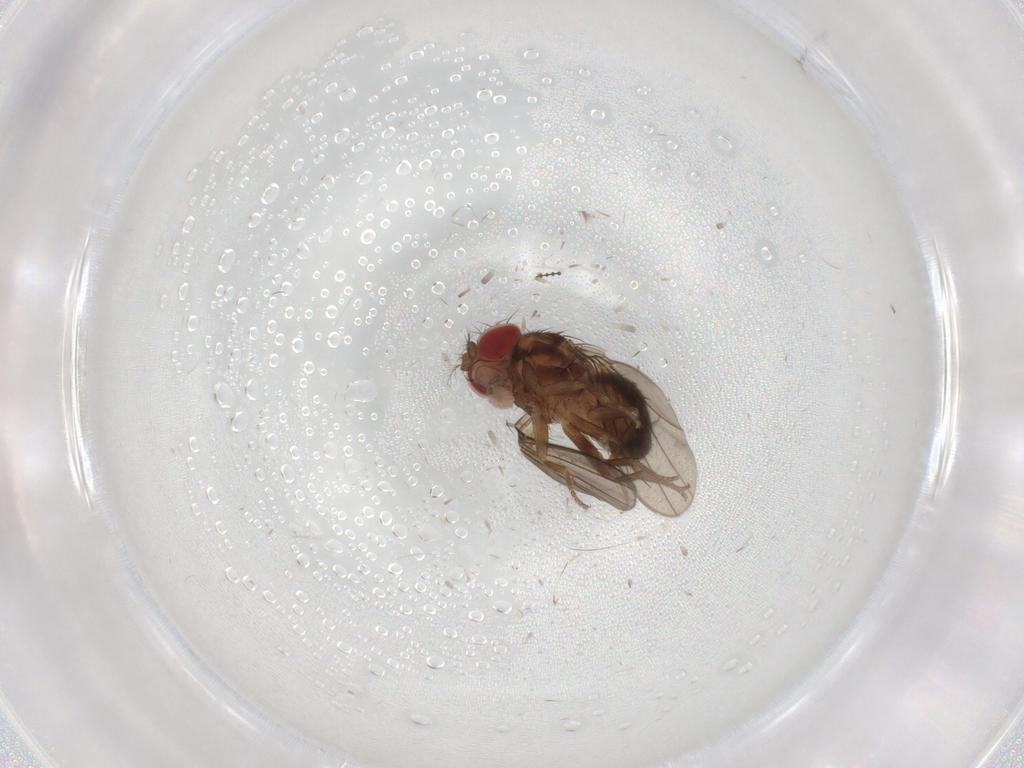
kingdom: Animalia
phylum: Arthropoda
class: Insecta
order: Diptera
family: Drosophilidae
